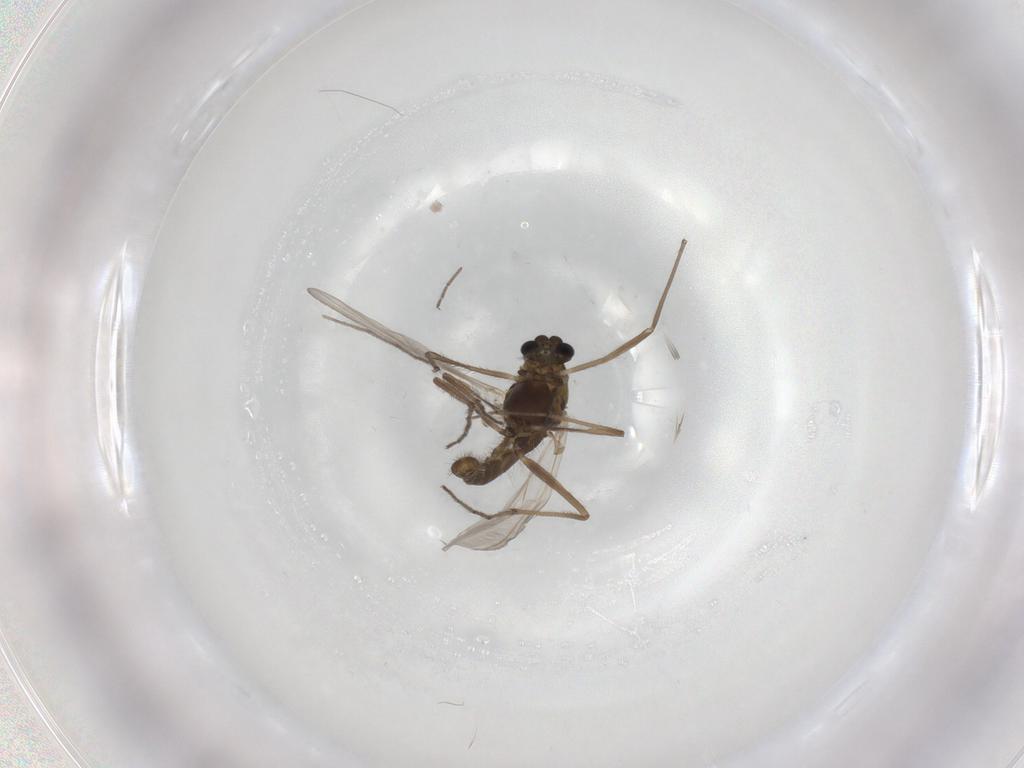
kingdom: Animalia
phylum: Arthropoda
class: Insecta
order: Diptera
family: Chironomidae
